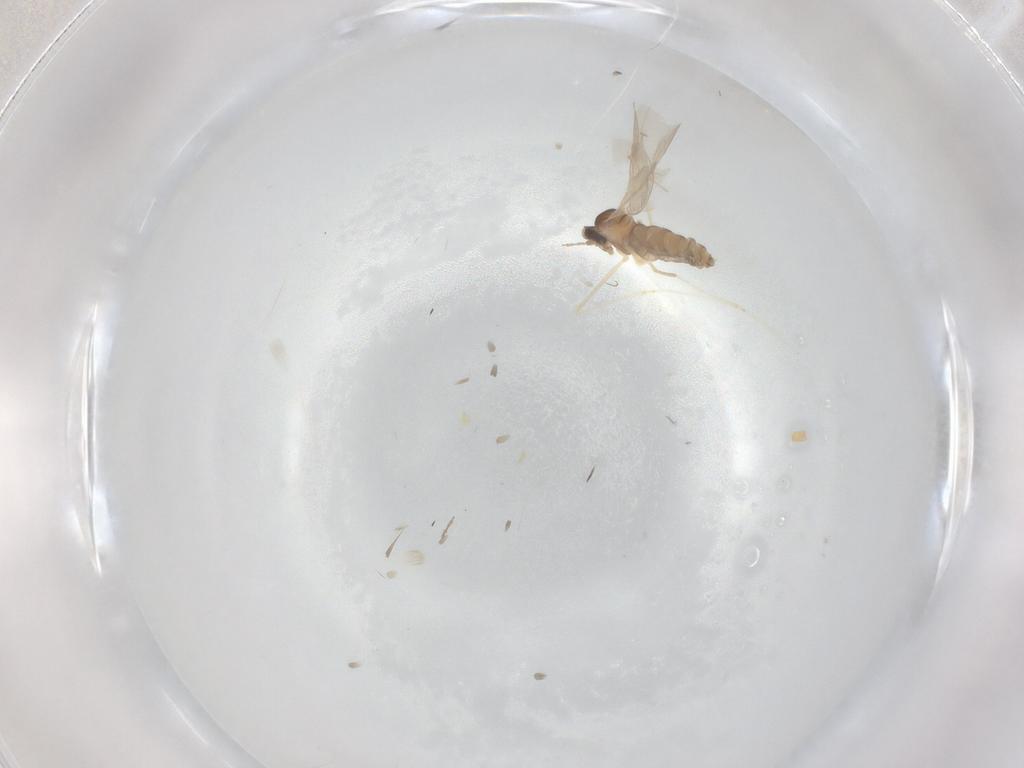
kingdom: Animalia
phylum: Arthropoda
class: Insecta
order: Diptera
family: Cecidomyiidae
